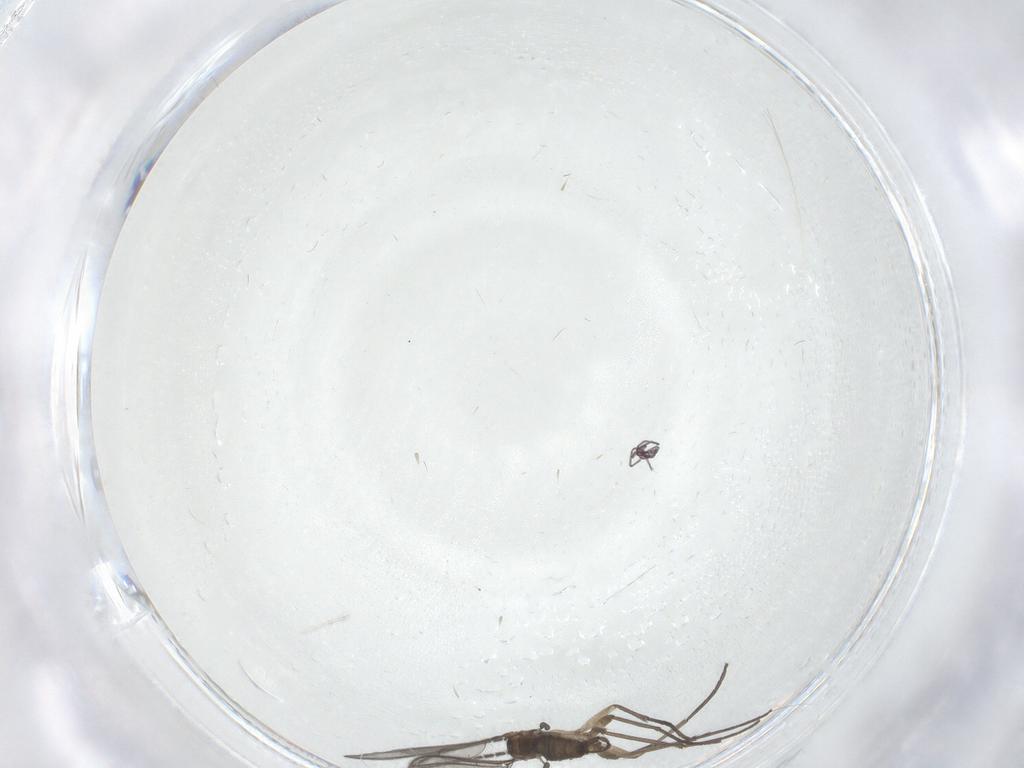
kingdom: Animalia
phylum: Arthropoda
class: Insecta
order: Diptera
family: Sciaridae
